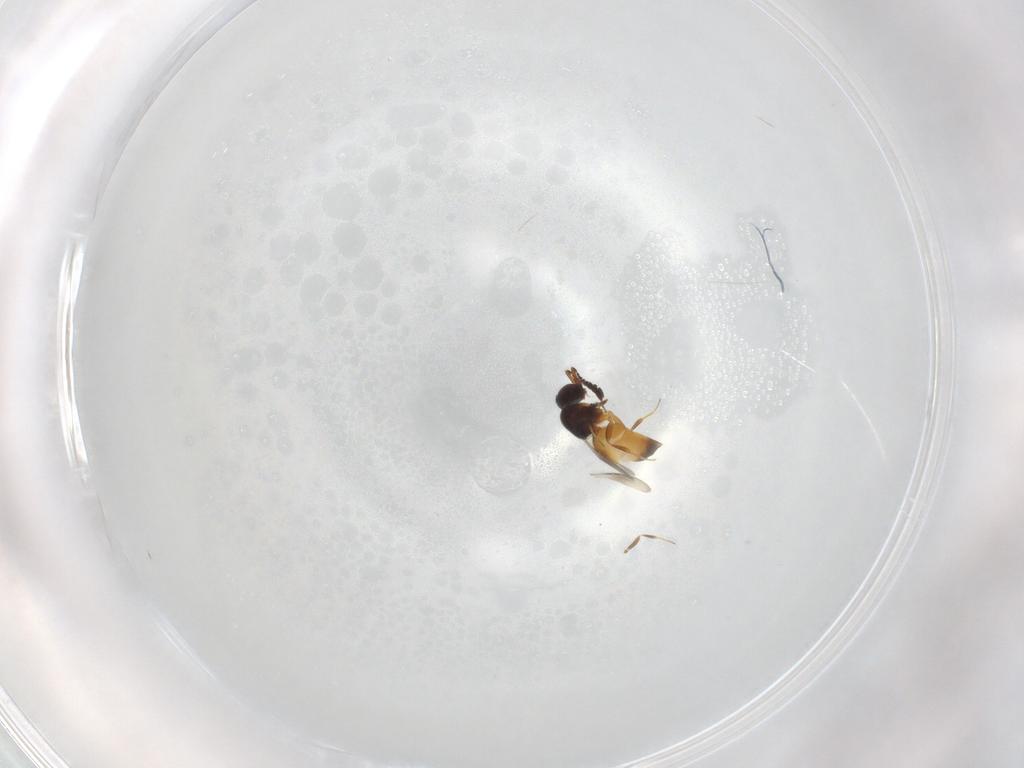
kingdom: Animalia
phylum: Arthropoda
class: Insecta
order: Hymenoptera
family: Ceraphronidae
